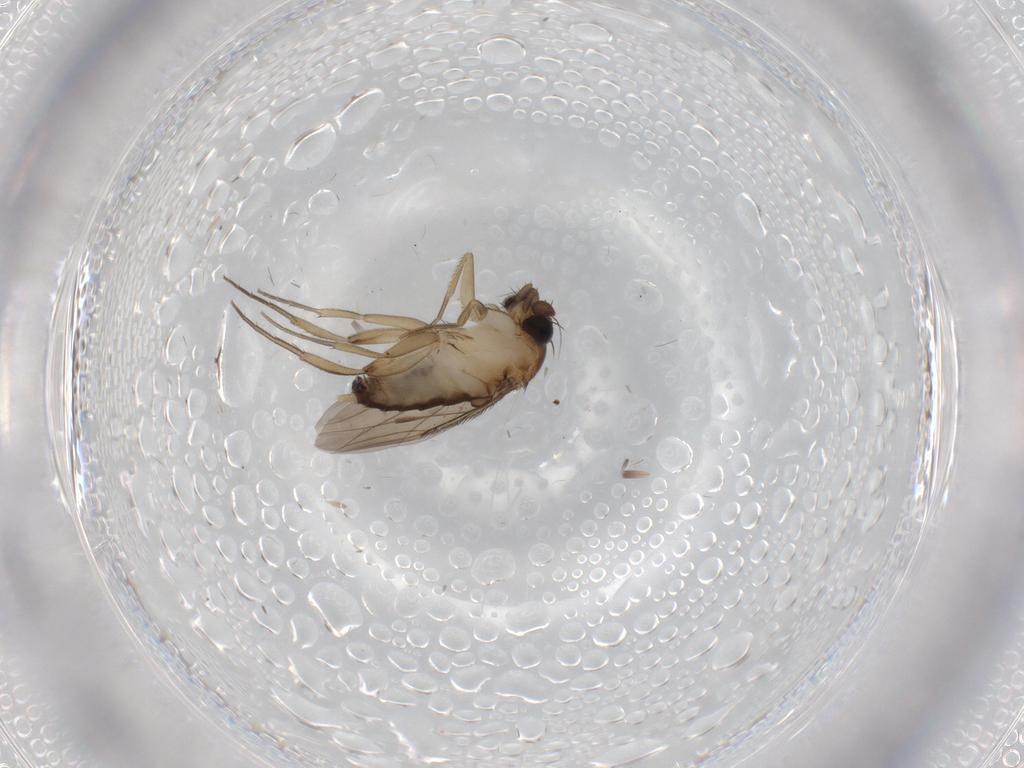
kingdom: Animalia
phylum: Arthropoda
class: Insecta
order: Diptera
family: Phoridae
